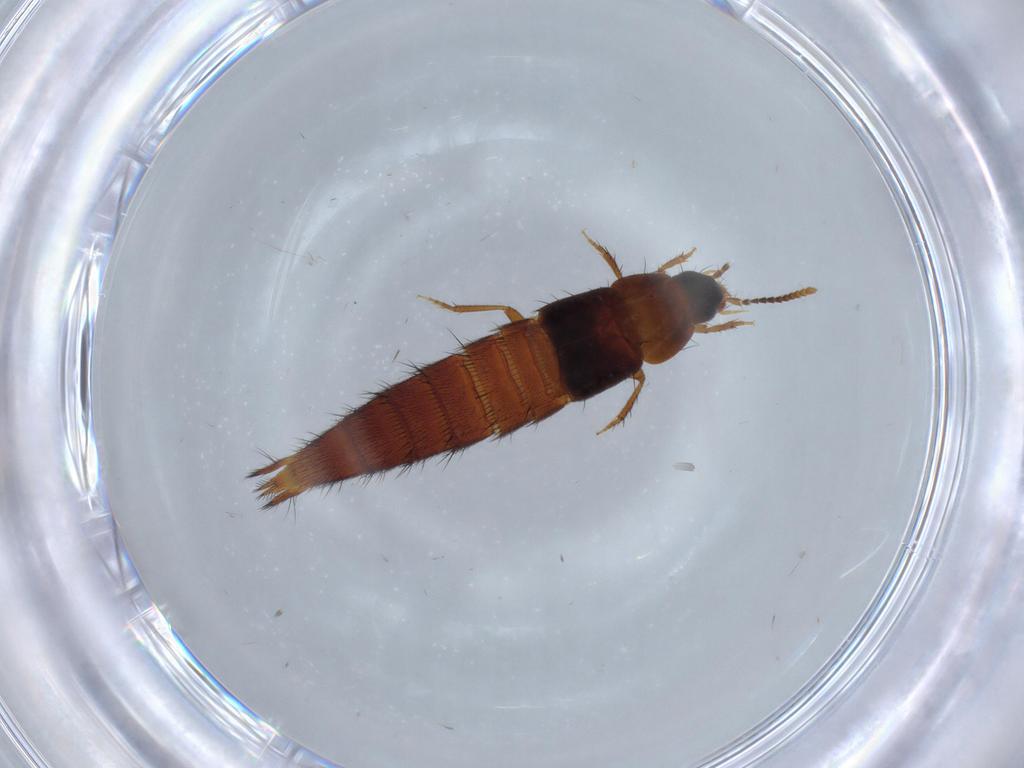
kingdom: Animalia
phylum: Arthropoda
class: Insecta
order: Coleoptera
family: Staphylinidae
